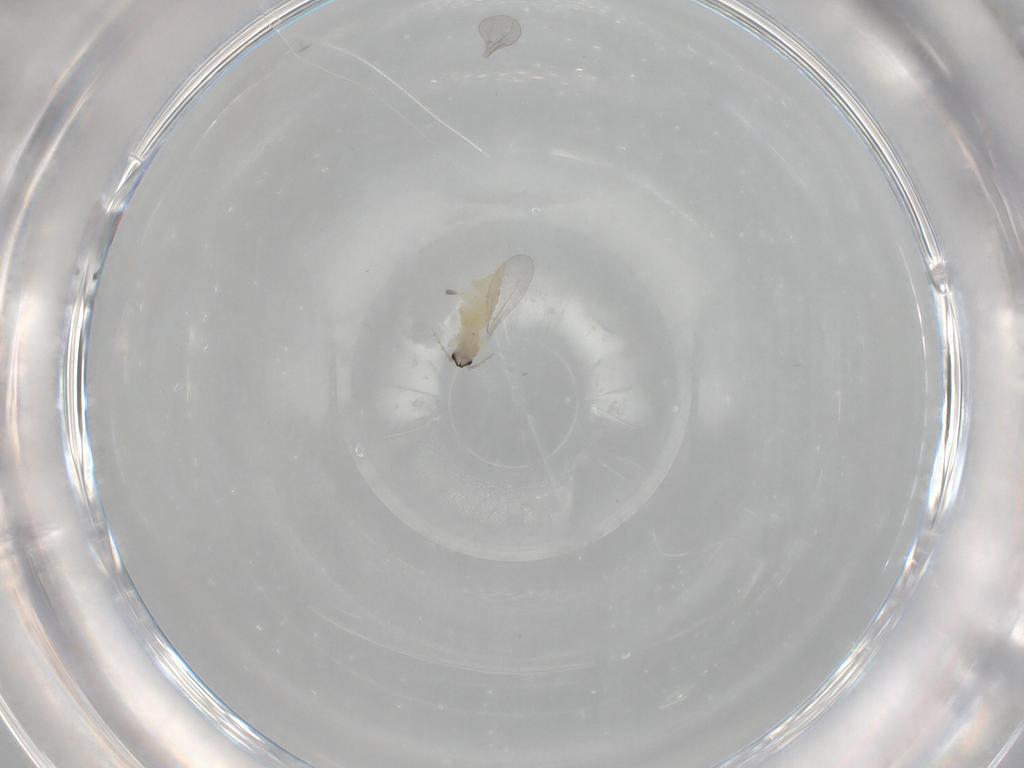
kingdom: Animalia
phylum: Arthropoda
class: Insecta
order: Diptera
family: Cecidomyiidae
